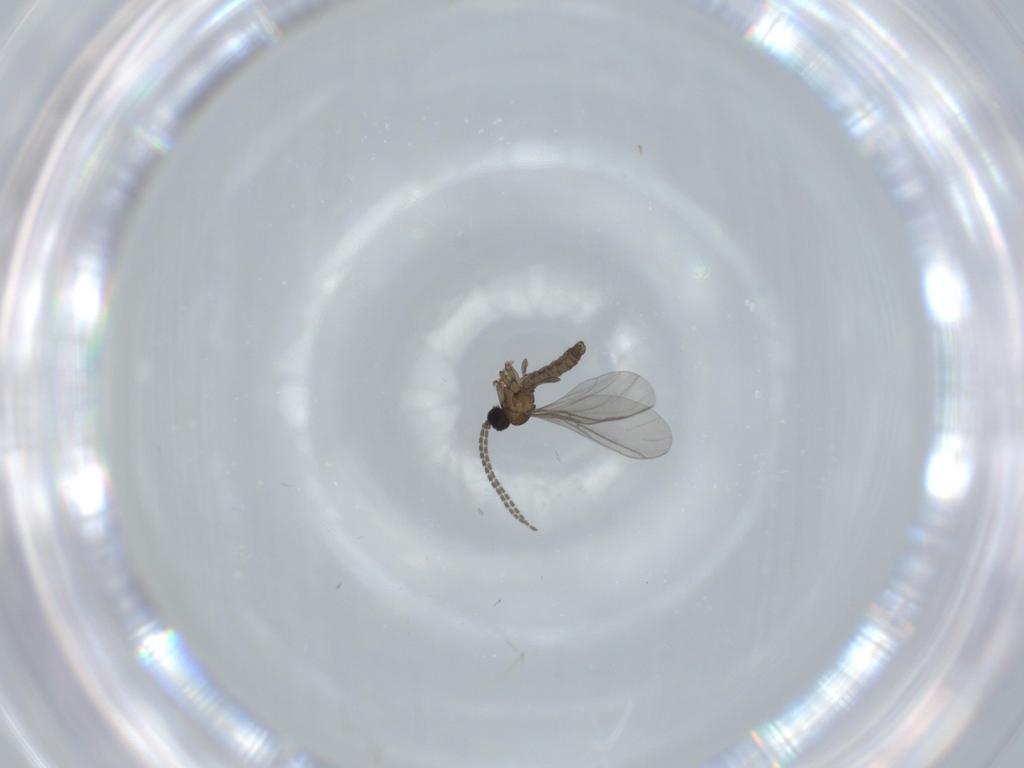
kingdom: Animalia
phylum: Arthropoda
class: Insecta
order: Diptera
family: Sciaridae
